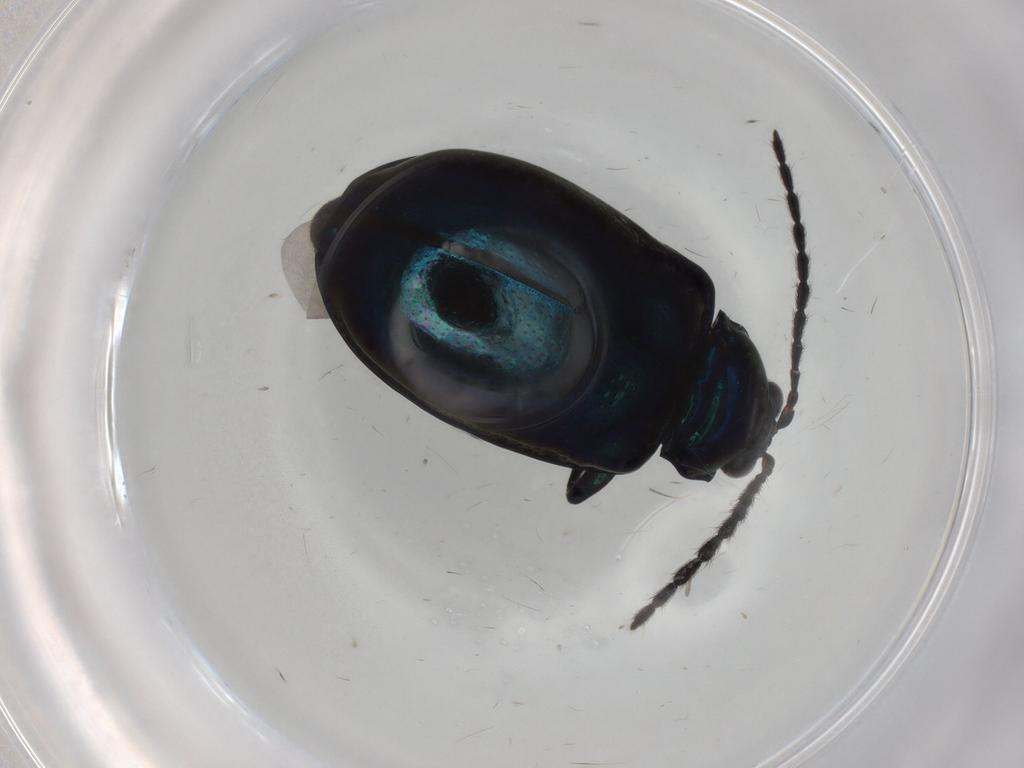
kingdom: Animalia
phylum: Arthropoda
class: Insecta
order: Coleoptera
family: Chrysomelidae
